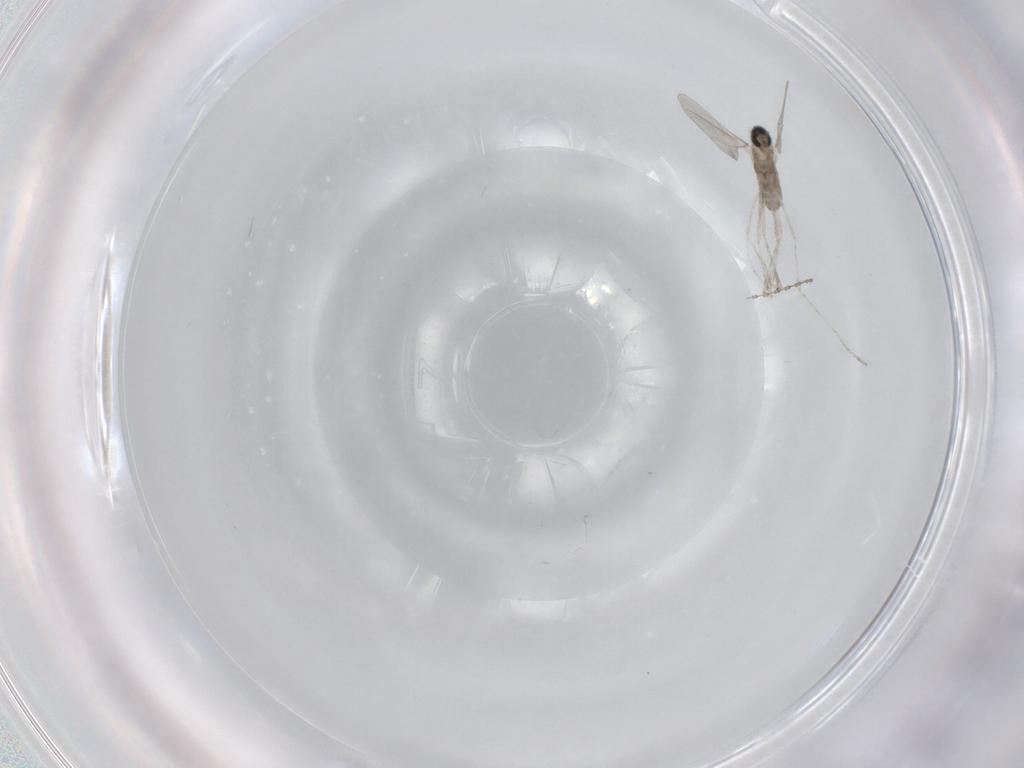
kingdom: Animalia
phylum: Arthropoda
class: Insecta
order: Diptera
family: Cecidomyiidae
